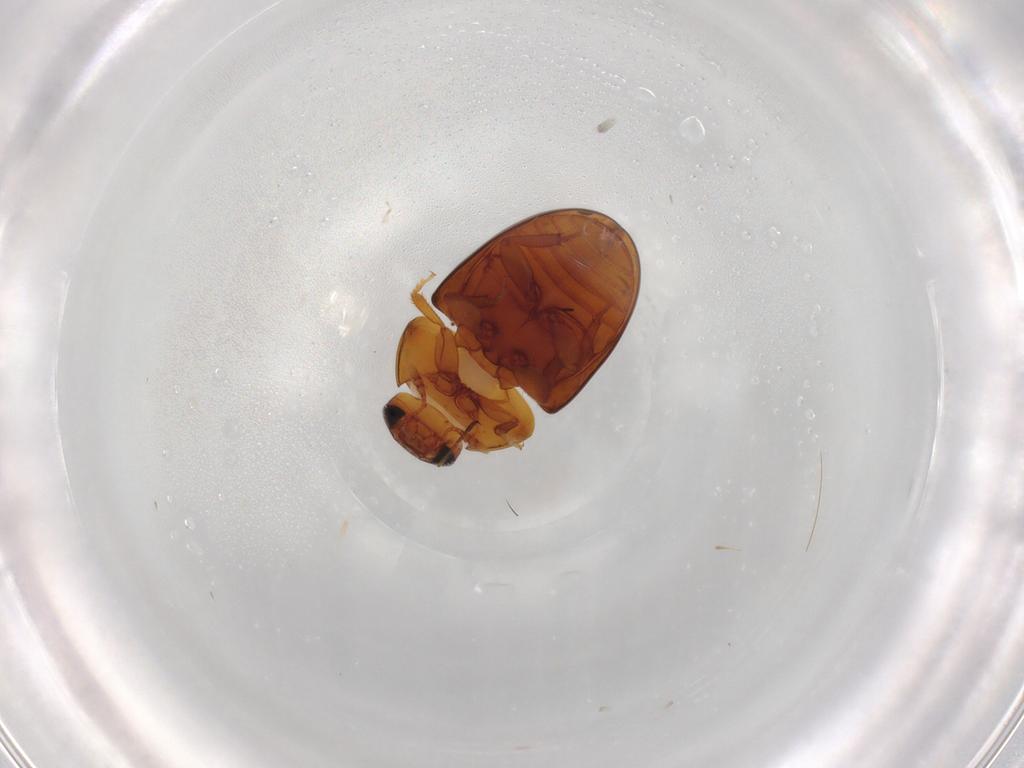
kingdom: Animalia
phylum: Arthropoda
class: Insecta
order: Coleoptera
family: Phalacridae
